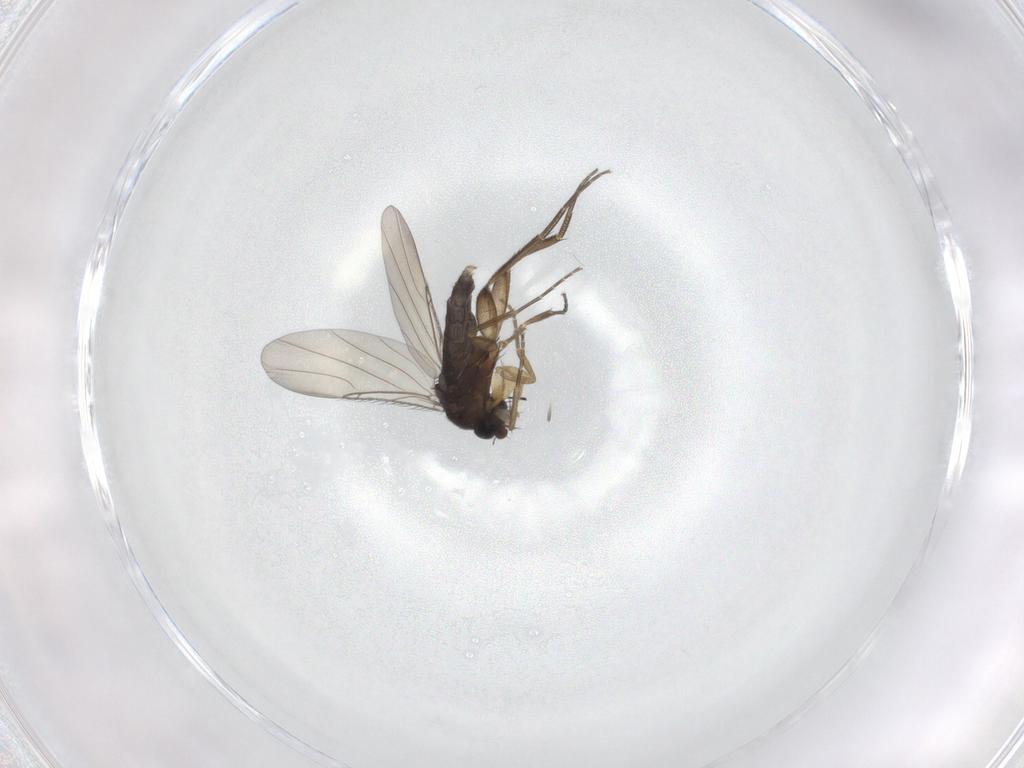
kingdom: Animalia
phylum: Arthropoda
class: Insecta
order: Diptera
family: Phoridae
